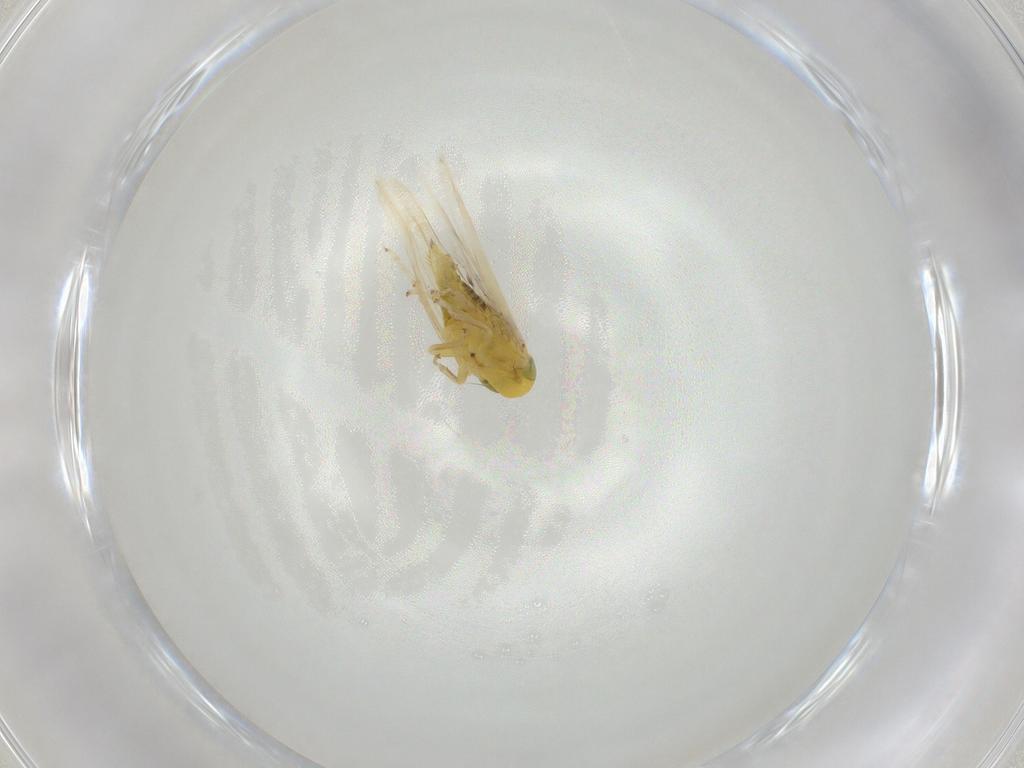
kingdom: Animalia
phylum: Arthropoda
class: Insecta
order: Hemiptera
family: Cicadellidae
